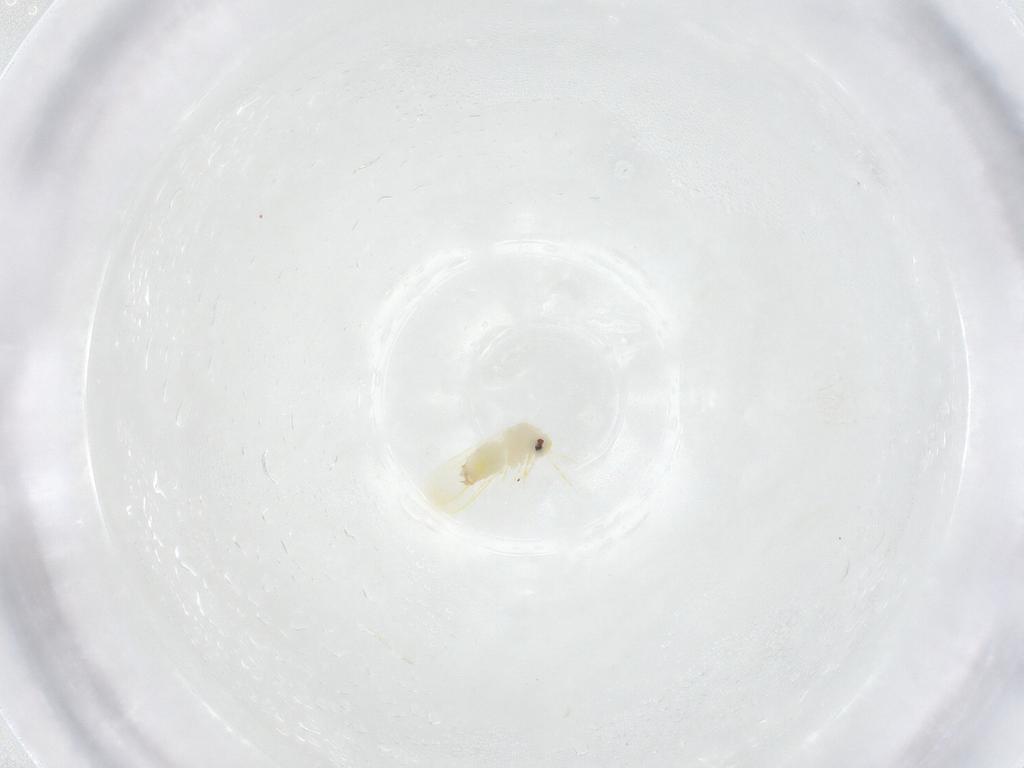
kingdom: Animalia
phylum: Arthropoda
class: Insecta
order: Hemiptera
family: Aleyrodidae
